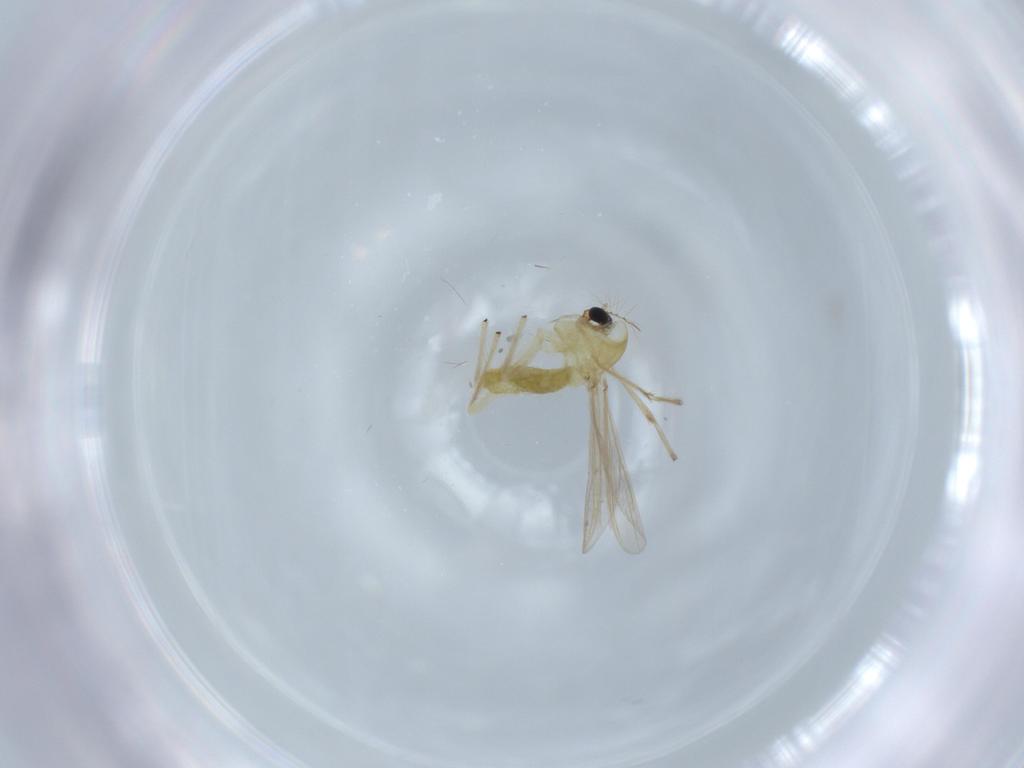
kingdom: Animalia
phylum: Arthropoda
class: Insecta
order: Diptera
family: Chironomidae
